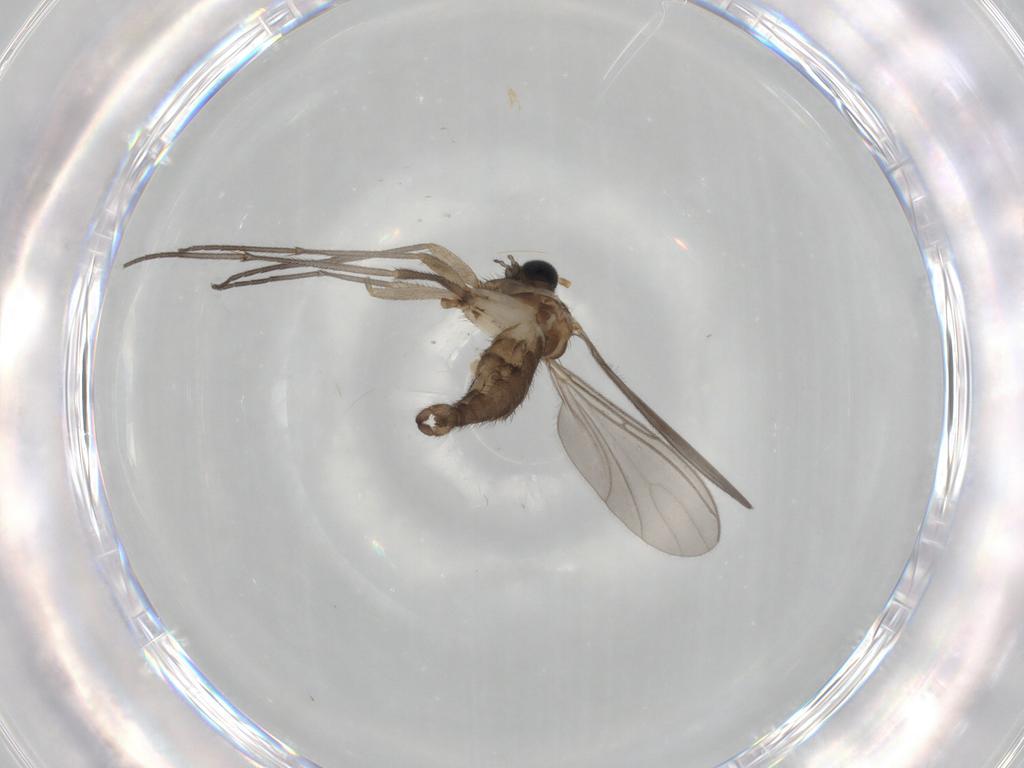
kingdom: Animalia
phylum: Arthropoda
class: Insecta
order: Diptera
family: Sciaridae
